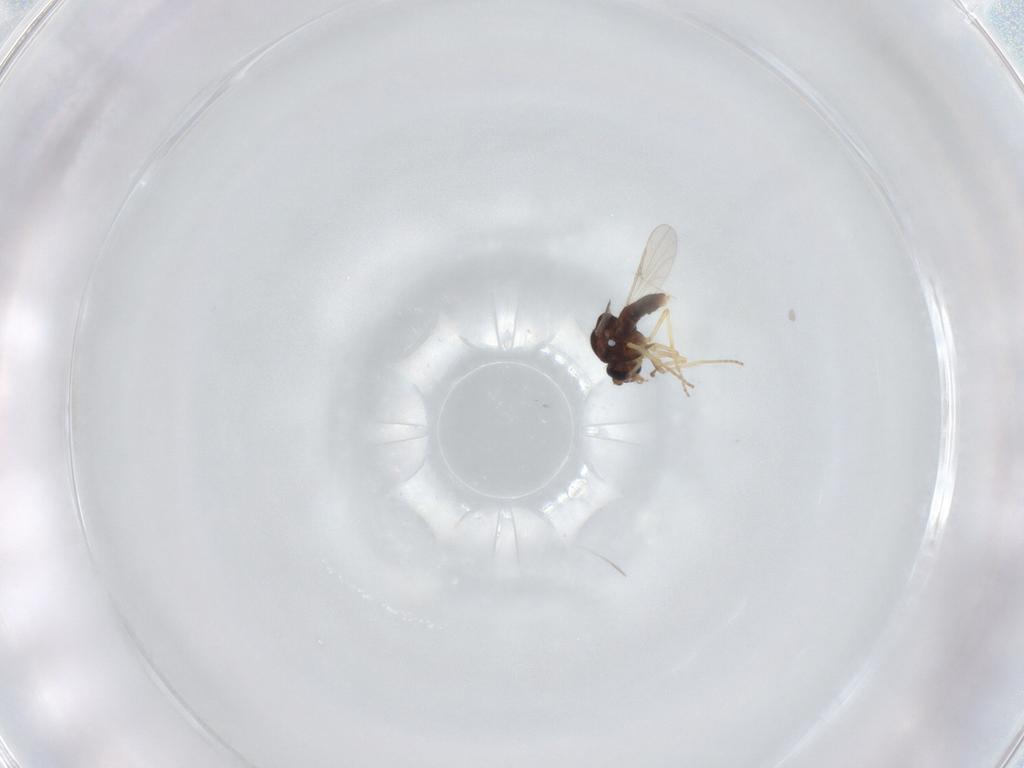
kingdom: Animalia
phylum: Arthropoda
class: Insecta
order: Diptera
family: Ceratopogonidae
